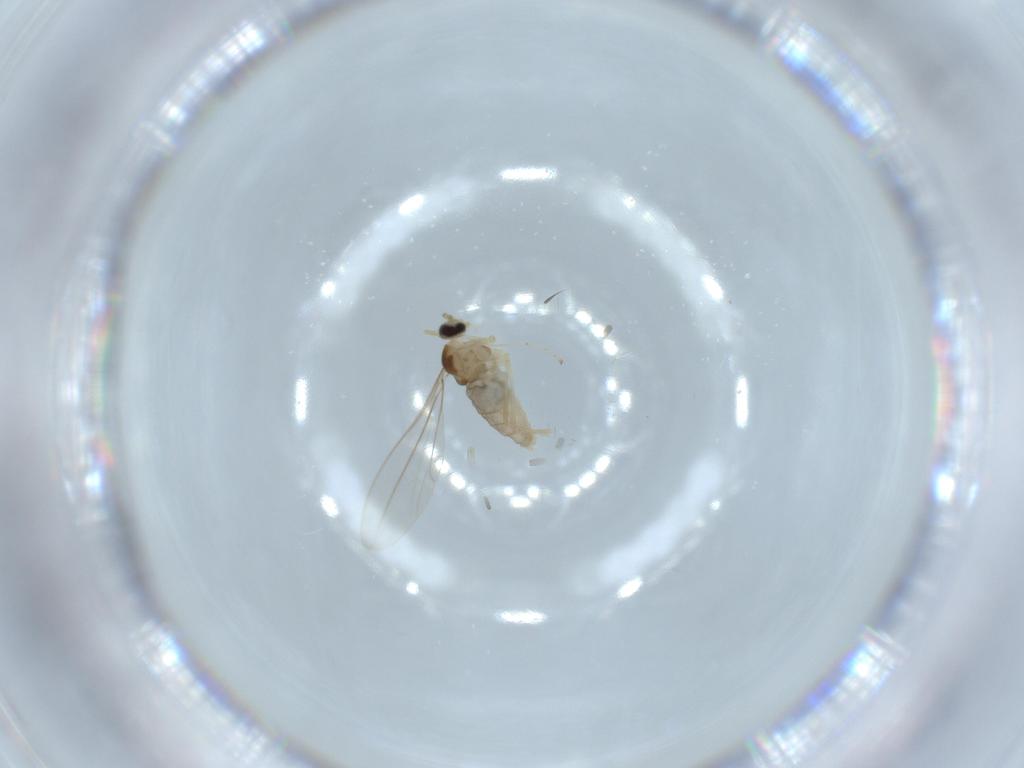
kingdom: Animalia
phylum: Arthropoda
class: Insecta
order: Diptera
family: Cecidomyiidae
